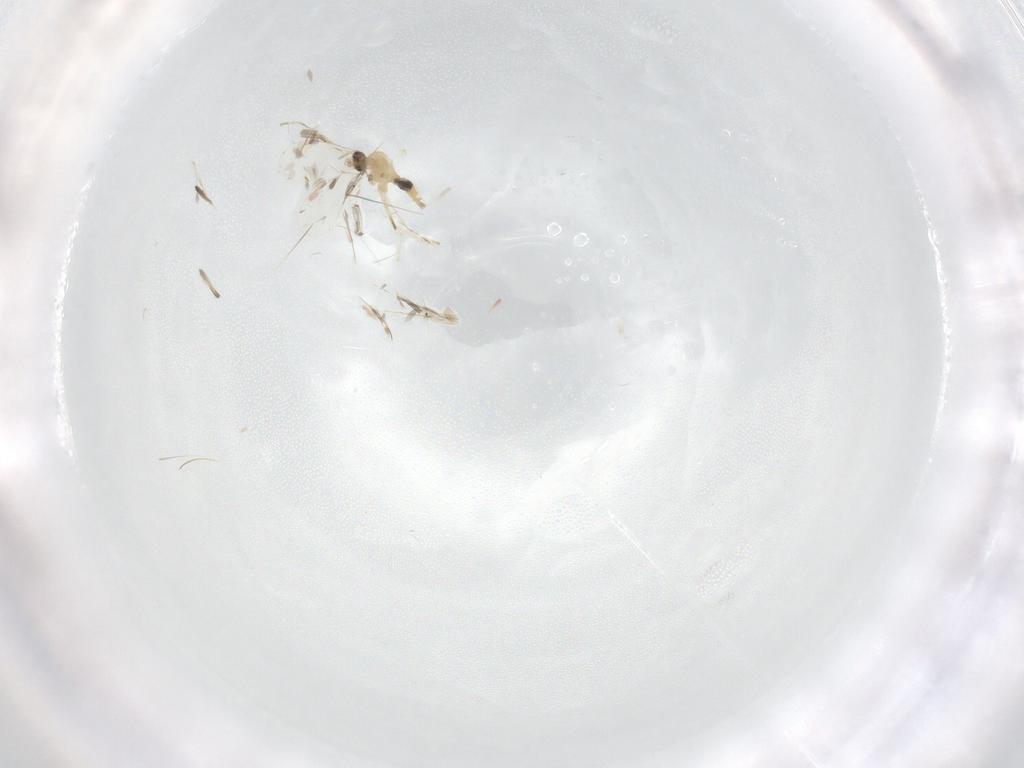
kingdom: Animalia
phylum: Arthropoda
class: Insecta
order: Diptera
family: Cecidomyiidae
